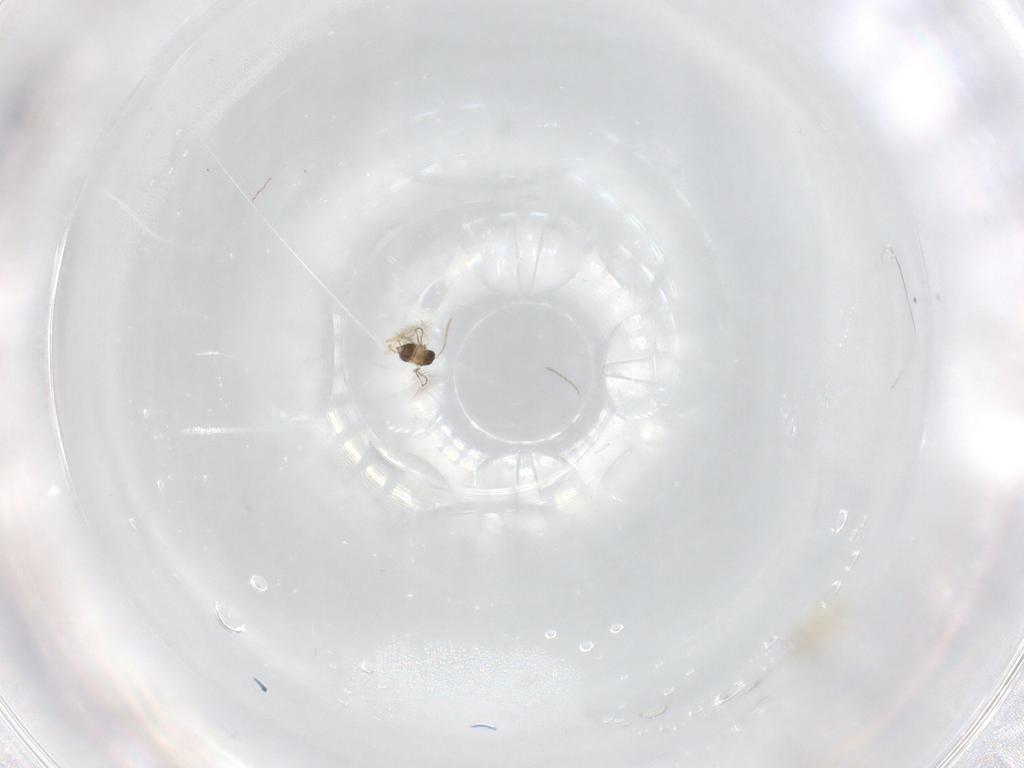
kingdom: Animalia
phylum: Arthropoda
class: Insecta
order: Hymenoptera
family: Mymaridae
